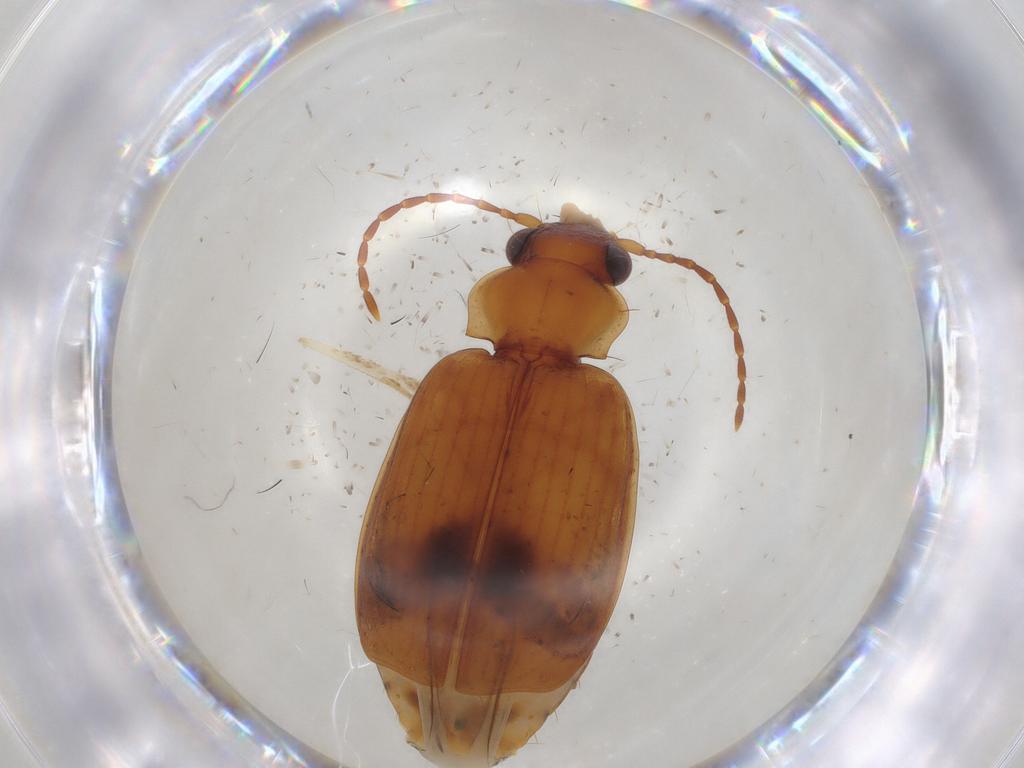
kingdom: Animalia
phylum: Arthropoda
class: Insecta
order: Coleoptera
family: Carabidae
